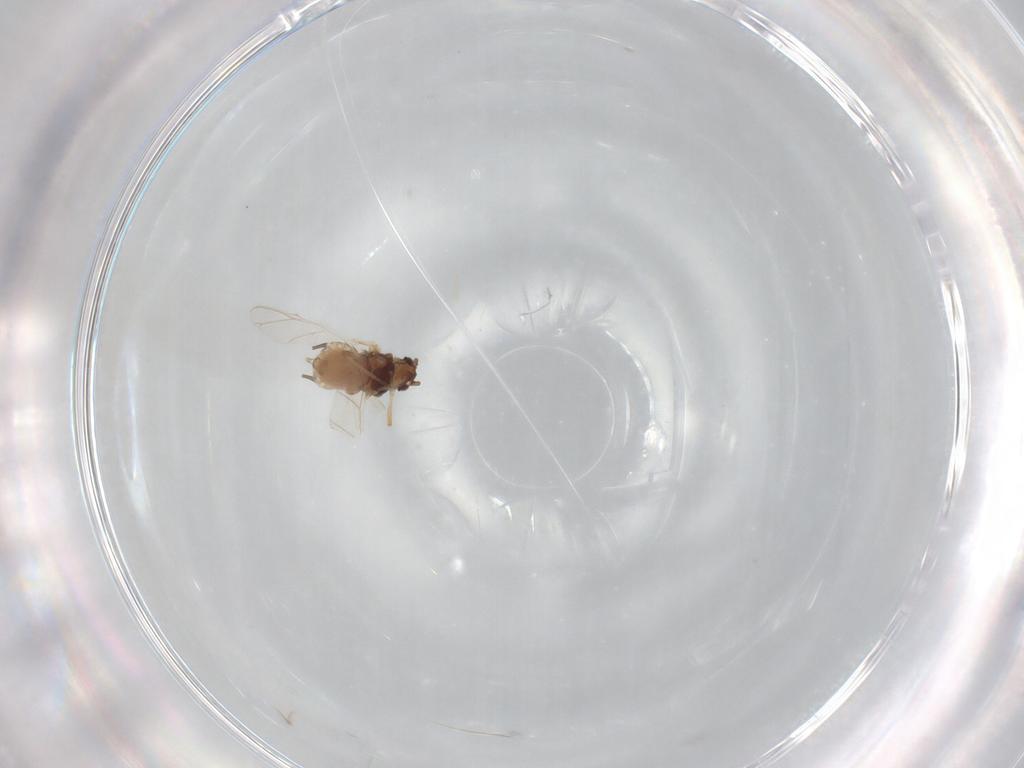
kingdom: Animalia
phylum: Arthropoda
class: Insecta
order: Hemiptera
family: Aphididae
